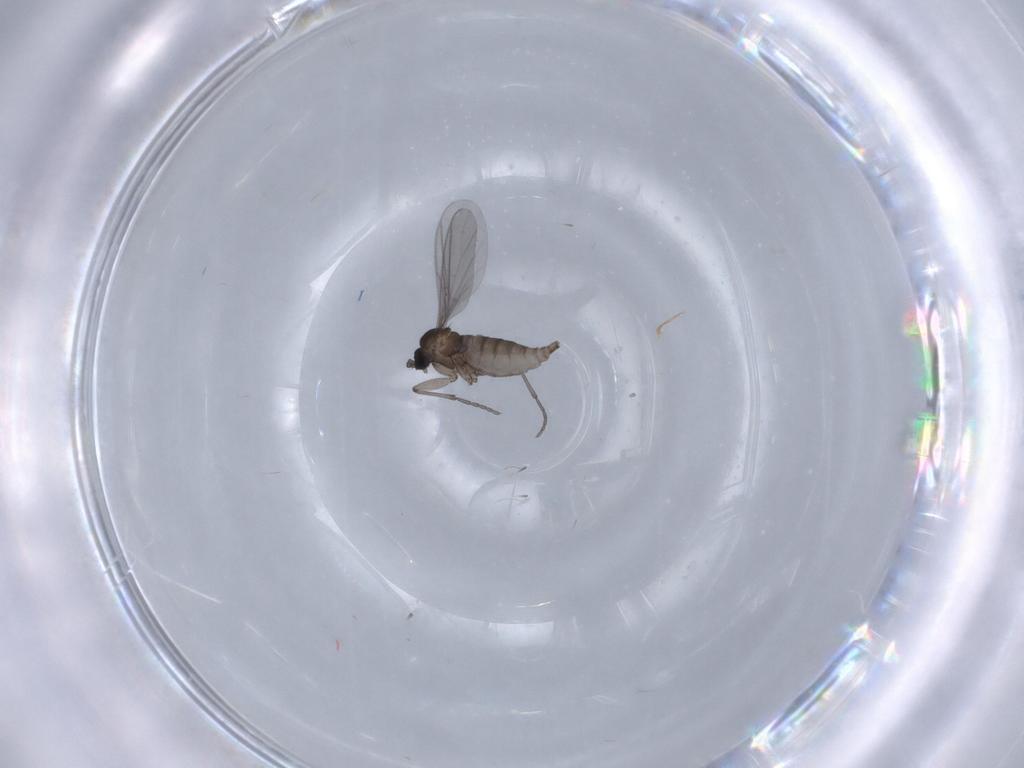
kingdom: Animalia
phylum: Arthropoda
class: Insecta
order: Diptera
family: Sciaridae
